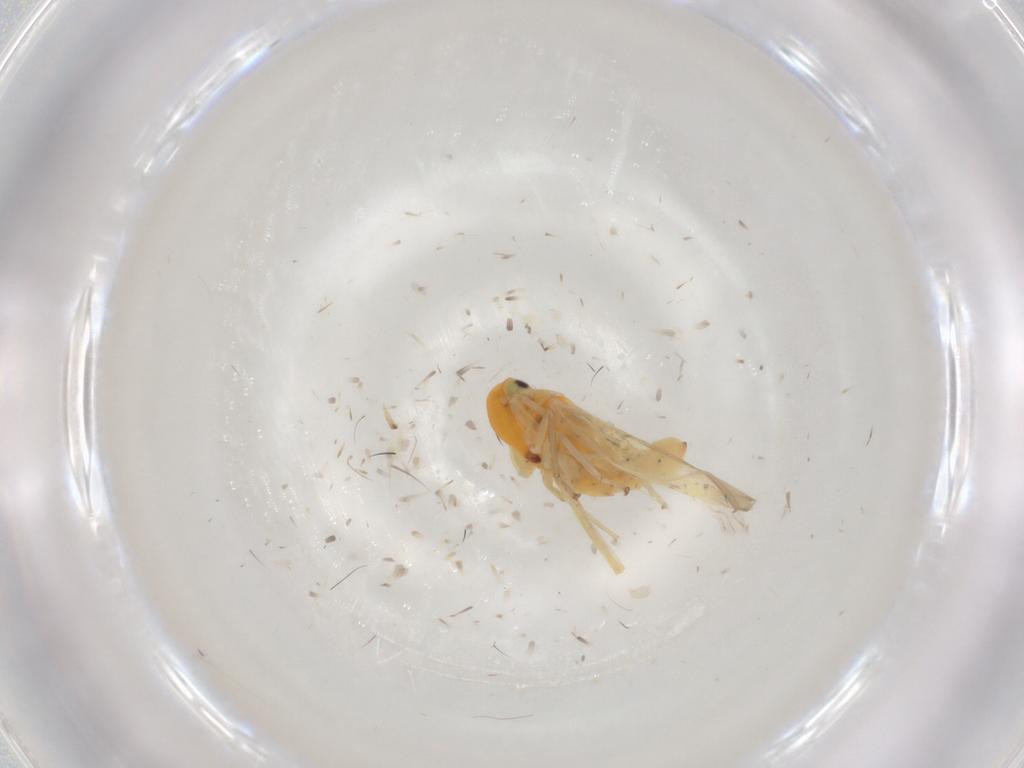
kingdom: Animalia
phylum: Arthropoda
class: Insecta
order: Hemiptera
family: Cicadellidae
